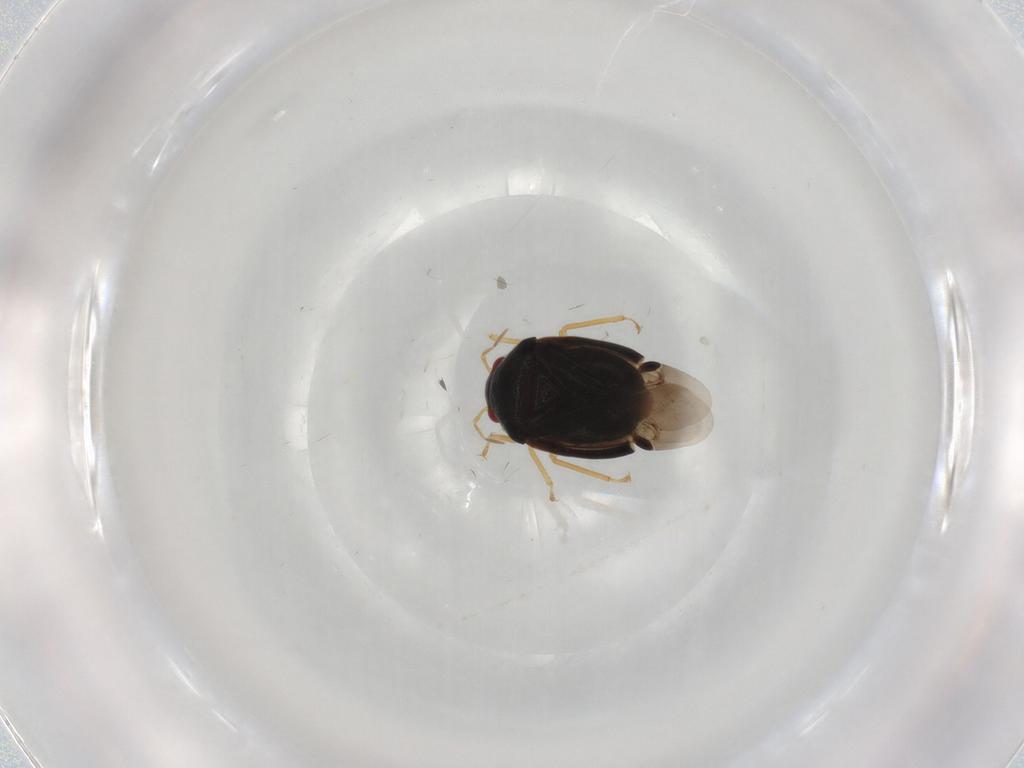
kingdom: Animalia
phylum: Arthropoda
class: Insecta
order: Hemiptera
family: Miridae
